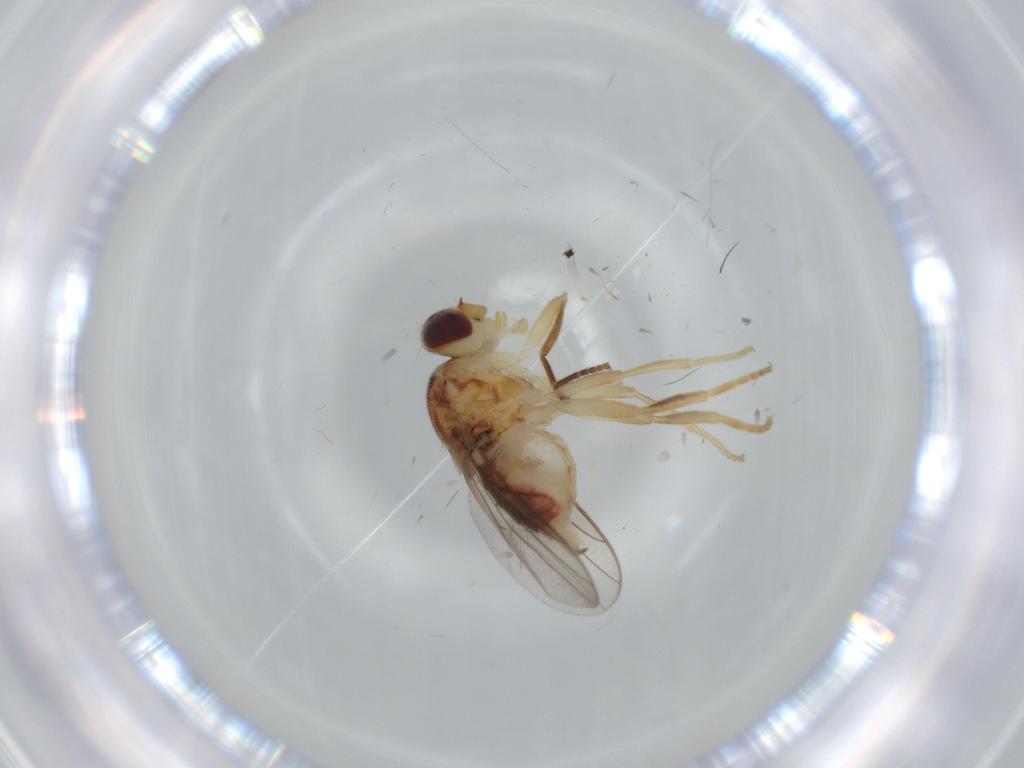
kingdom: Animalia
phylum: Arthropoda
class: Insecta
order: Diptera
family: Chloropidae
